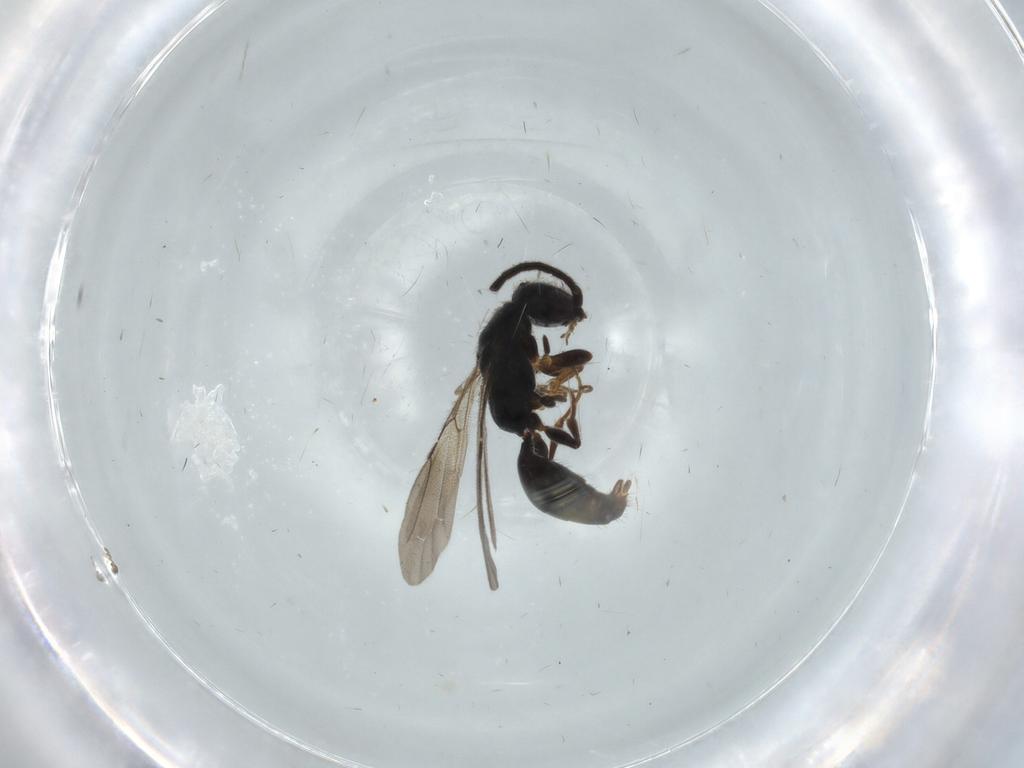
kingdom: Animalia
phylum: Arthropoda
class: Insecta
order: Hymenoptera
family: Bethylidae
